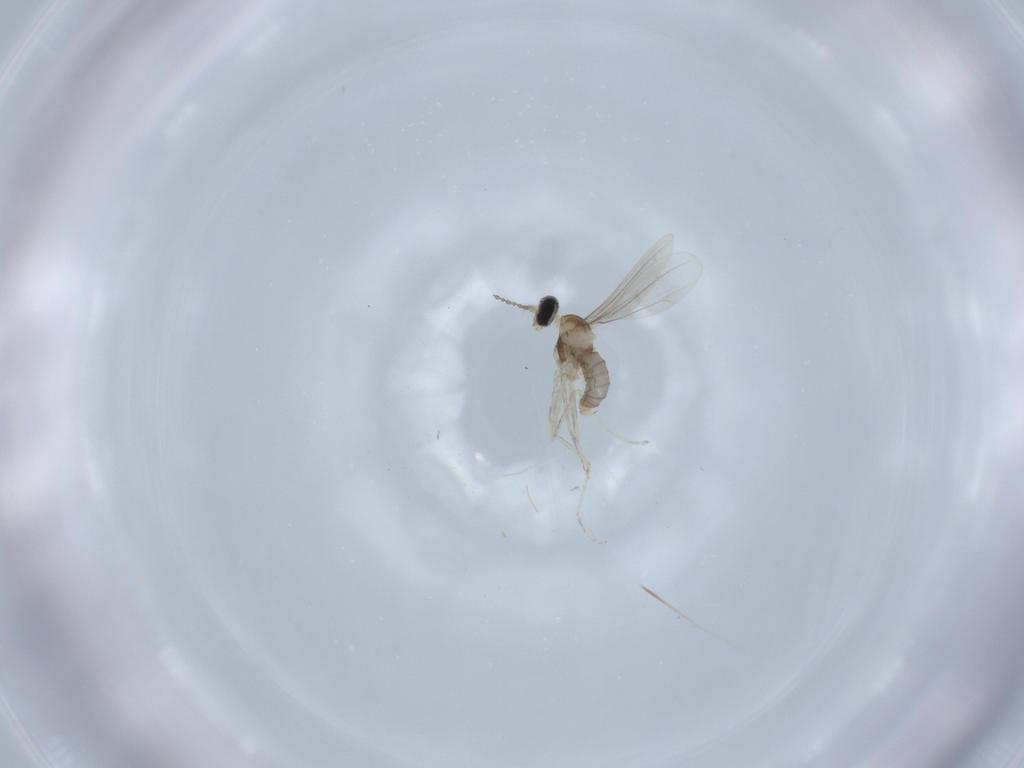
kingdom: Animalia
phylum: Arthropoda
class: Insecta
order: Diptera
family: Cecidomyiidae
